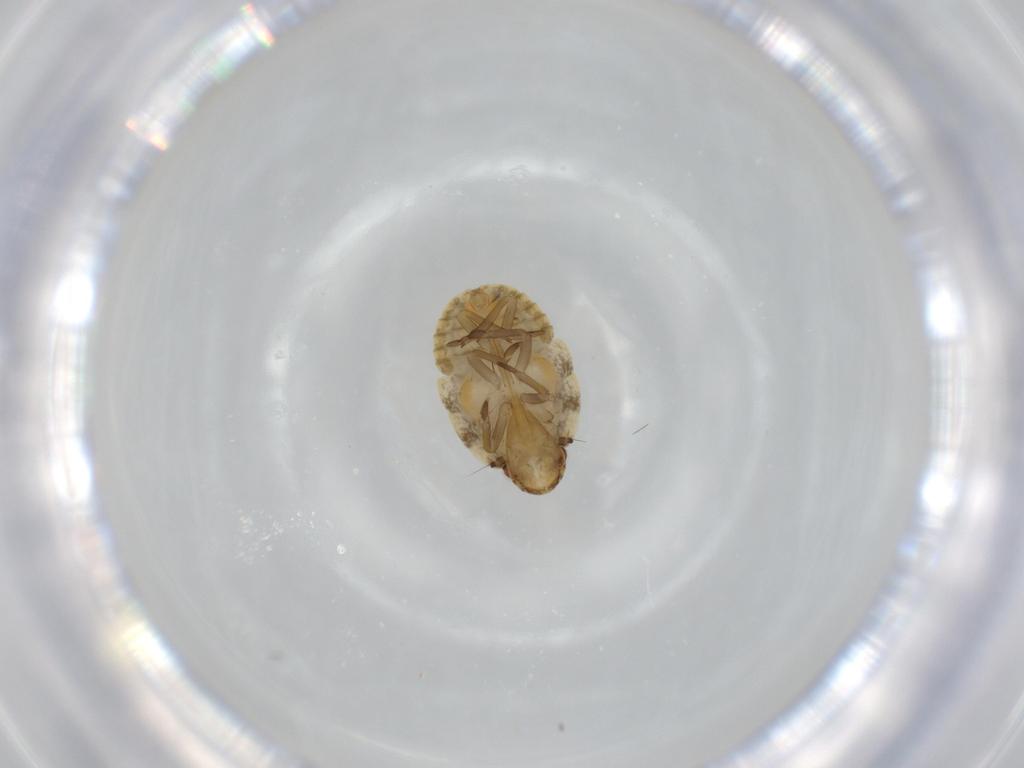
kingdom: Animalia
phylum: Arthropoda
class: Insecta
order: Hemiptera
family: Flatidae
